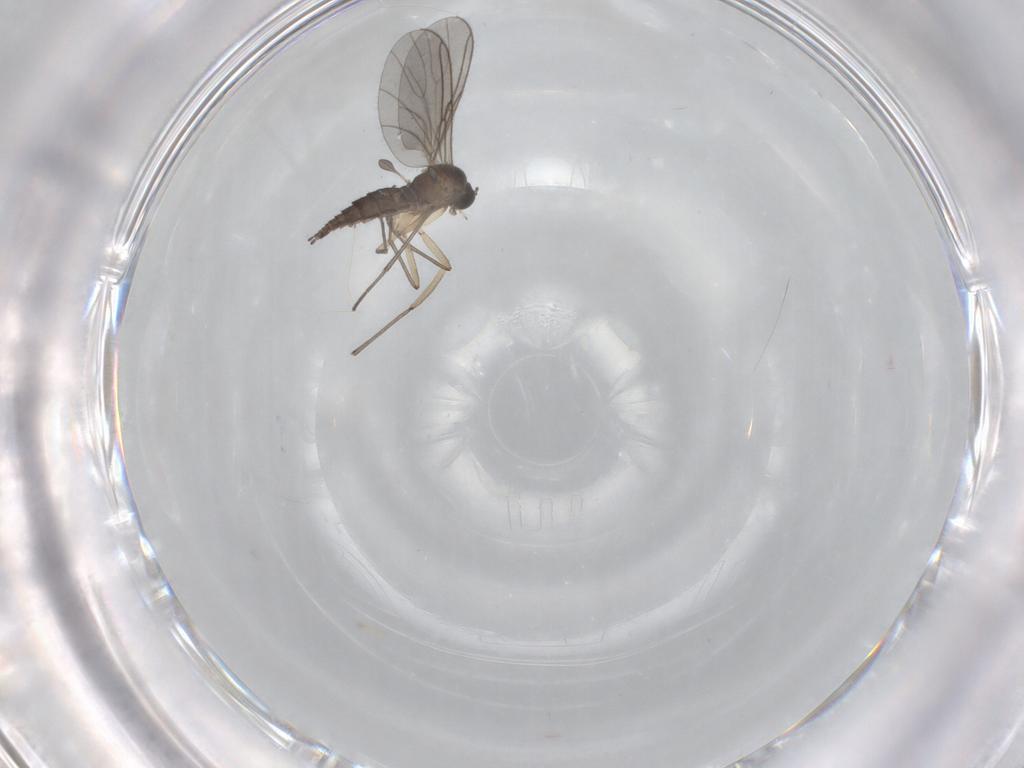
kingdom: Animalia
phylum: Arthropoda
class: Insecta
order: Diptera
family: Sciaridae
